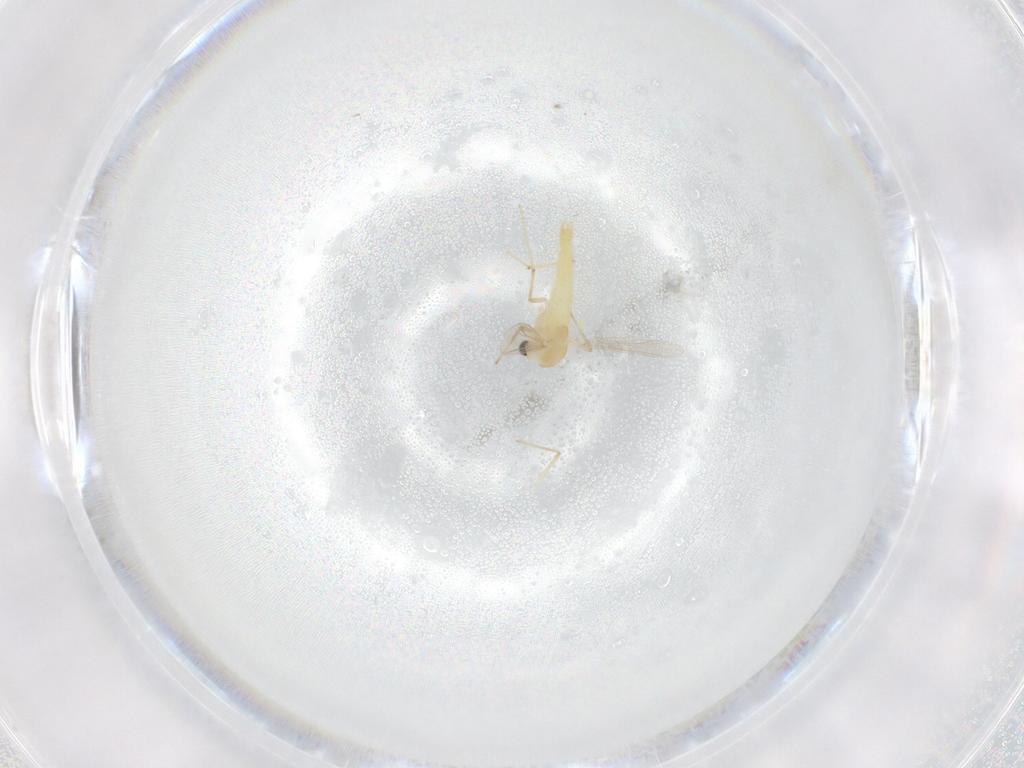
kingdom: Animalia
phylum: Arthropoda
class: Insecta
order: Diptera
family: Chironomidae
